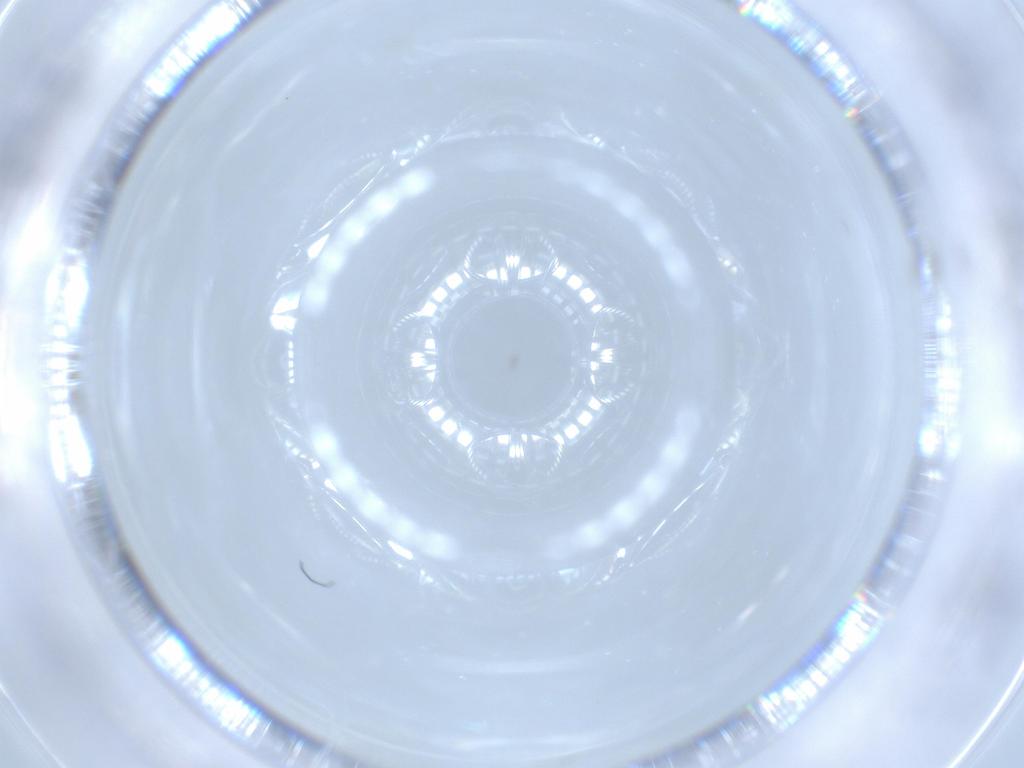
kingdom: Animalia
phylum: Arthropoda
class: Insecta
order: Diptera
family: Cecidomyiidae
